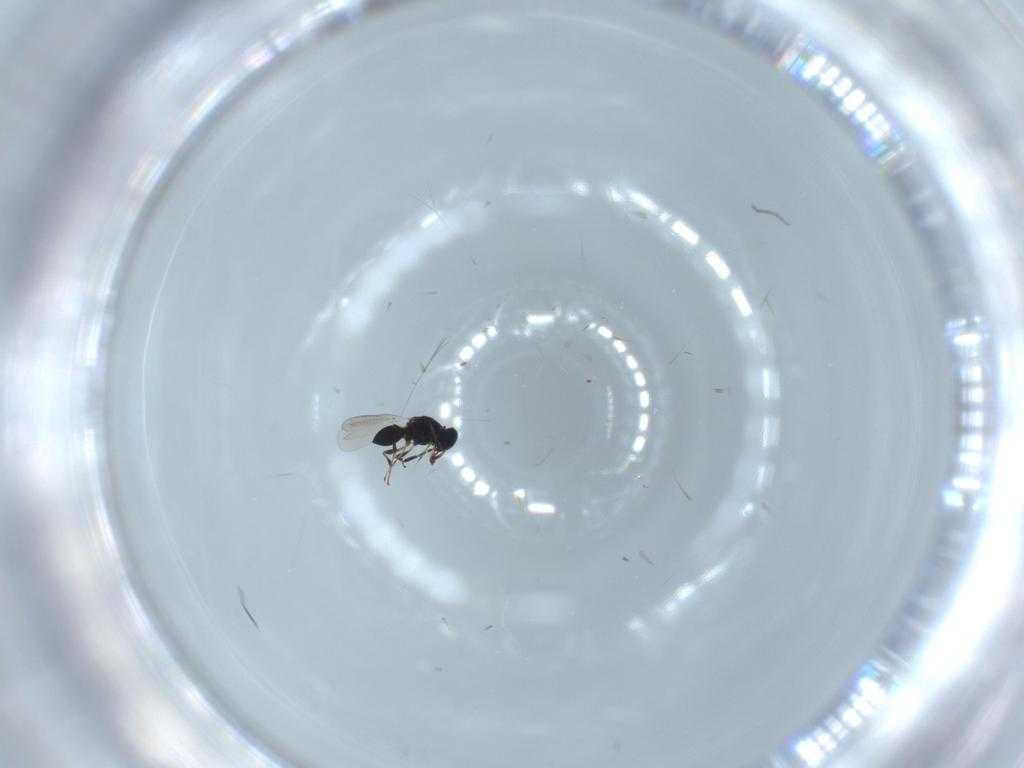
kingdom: Animalia
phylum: Arthropoda
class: Insecta
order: Hymenoptera
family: Platygastridae
